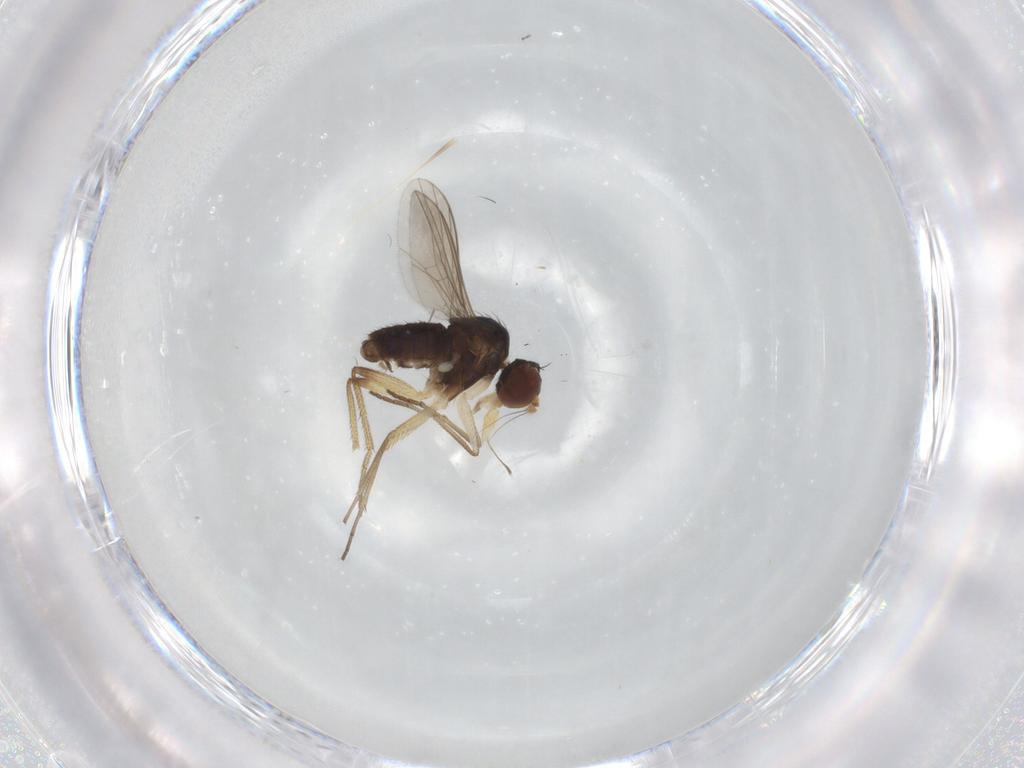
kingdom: Animalia
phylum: Arthropoda
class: Insecta
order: Diptera
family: Dolichopodidae
